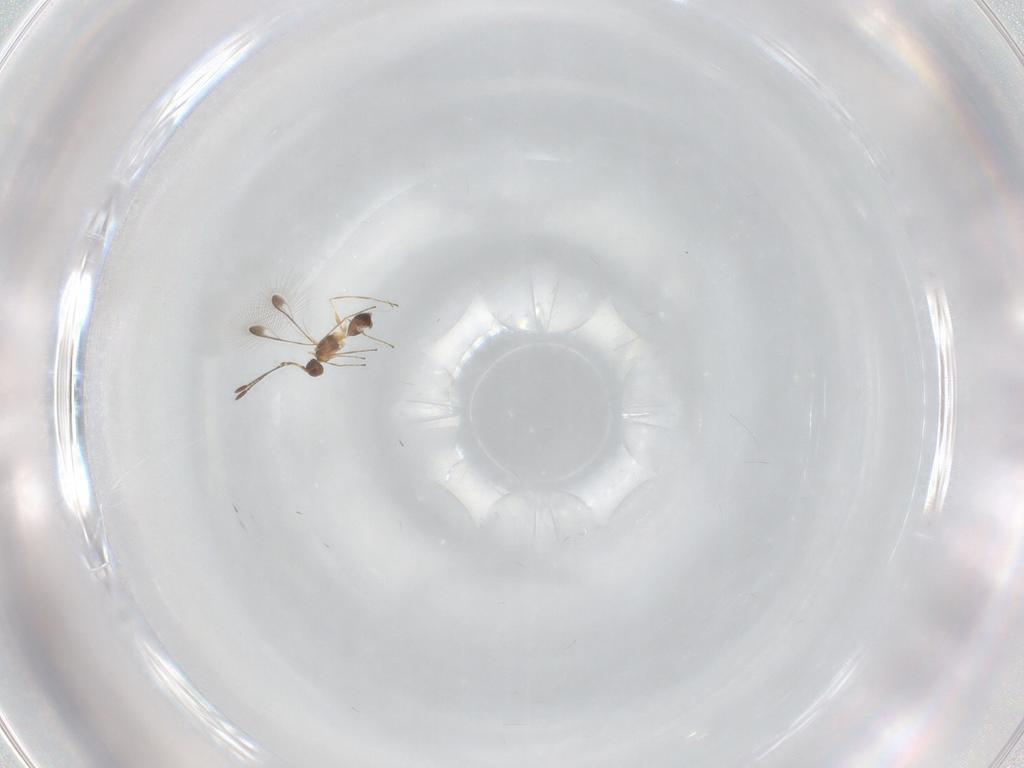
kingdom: Animalia
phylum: Arthropoda
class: Insecta
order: Hymenoptera
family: Mymaridae
